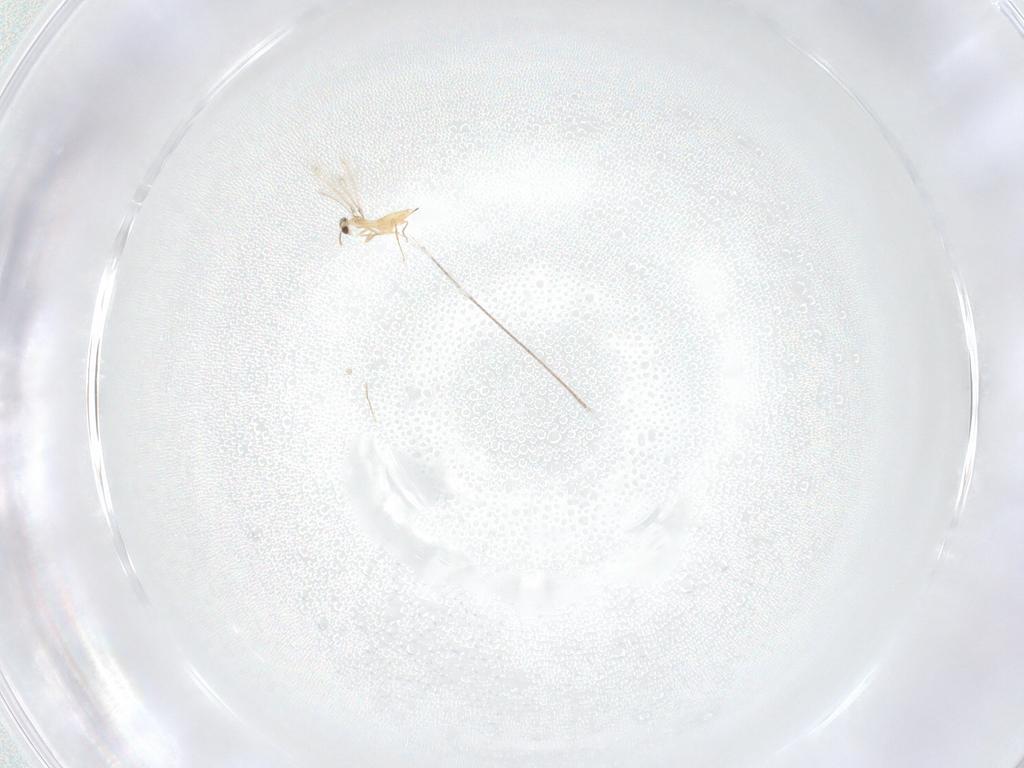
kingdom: Animalia
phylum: Arthropoda
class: Insecta
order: Hymenoptera
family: Mymaridae
